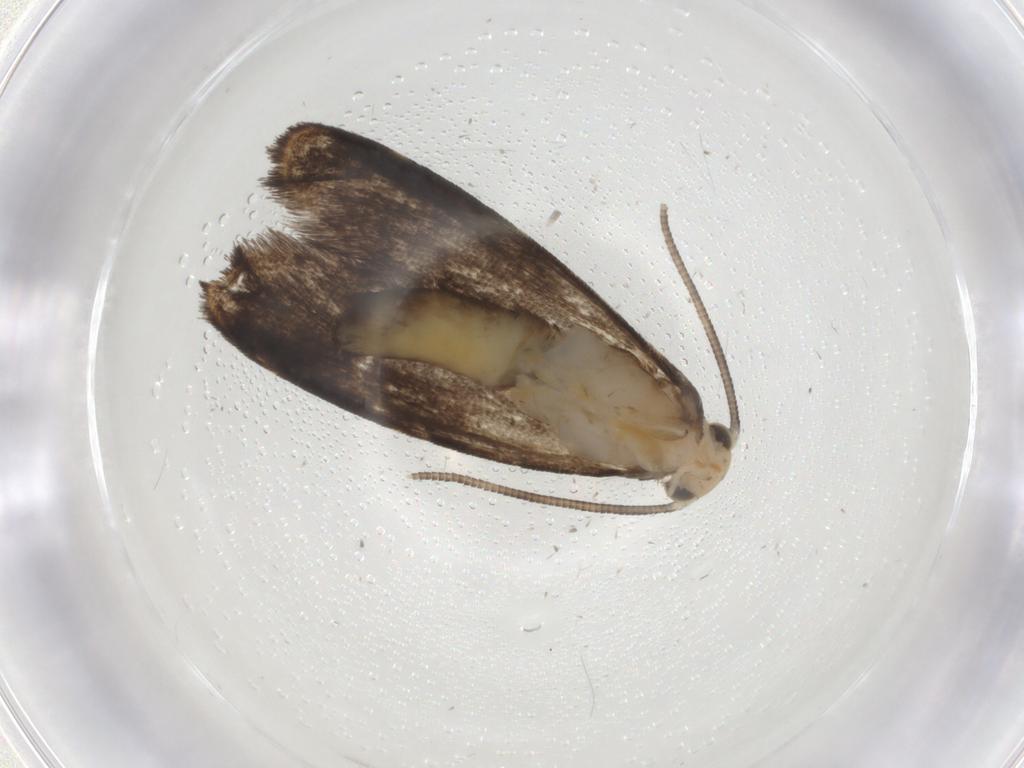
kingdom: Animalia
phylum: Arthropoda
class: Insecta
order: Lepidoptera
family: Dryadaulidae
